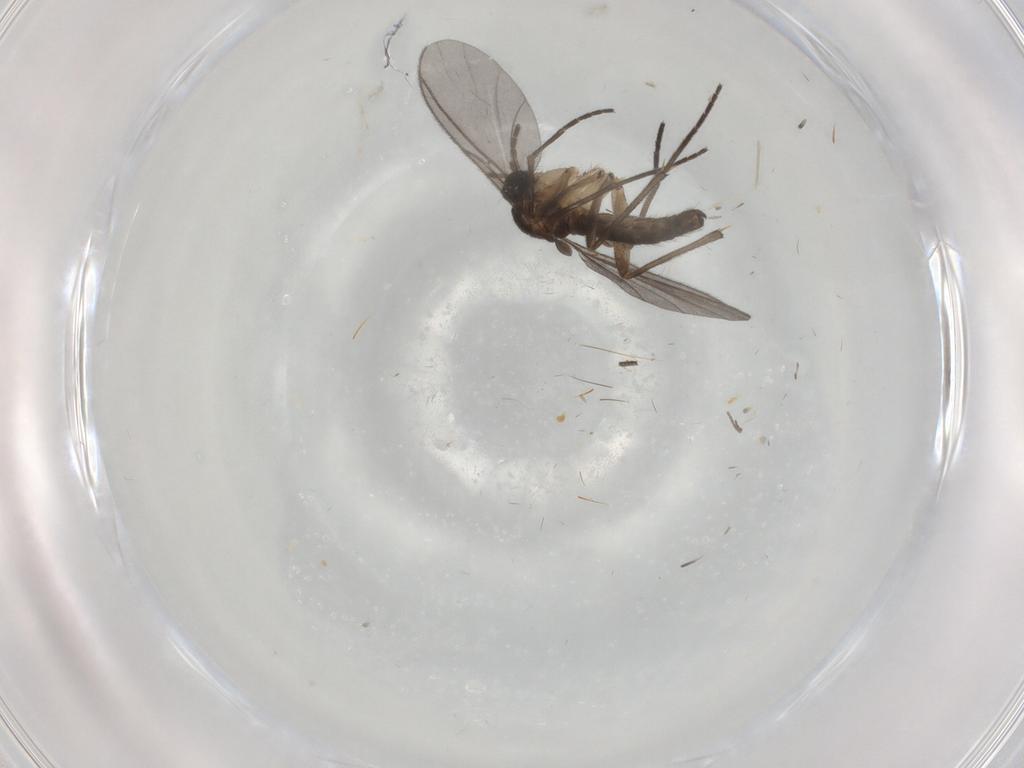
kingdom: Animalia
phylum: Arthropoda
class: Insecta
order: Diptera
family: Sciaridae
